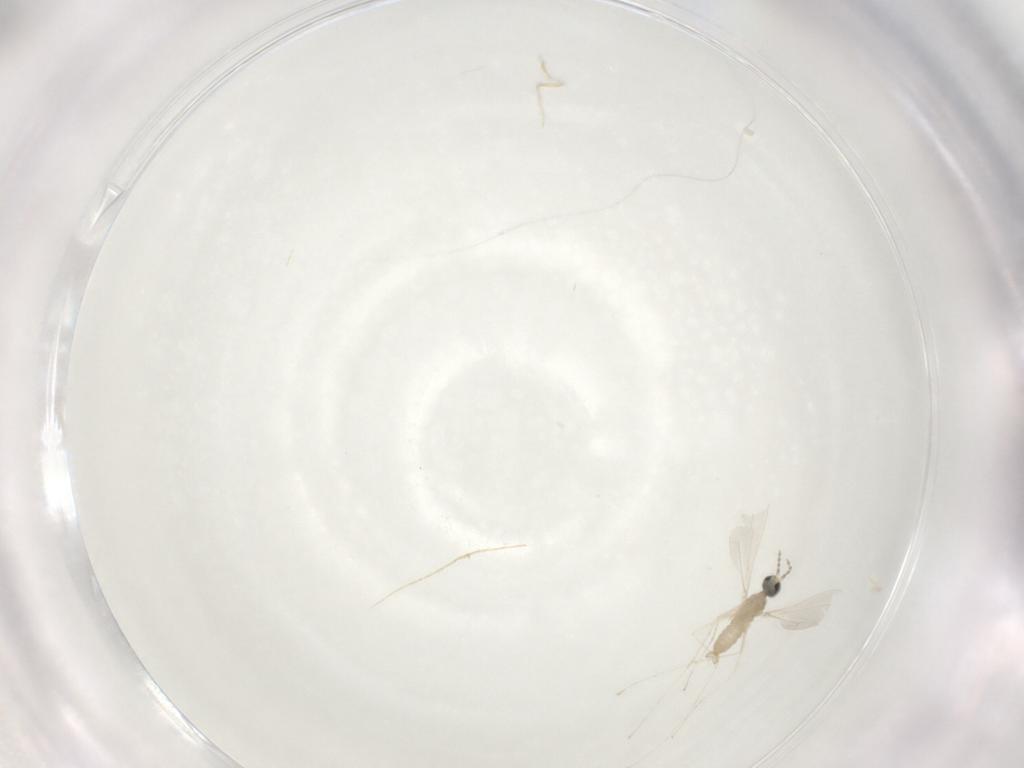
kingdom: Animalia
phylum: Arthropoda
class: Insecta
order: Diptera
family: Cecidomyiidae
